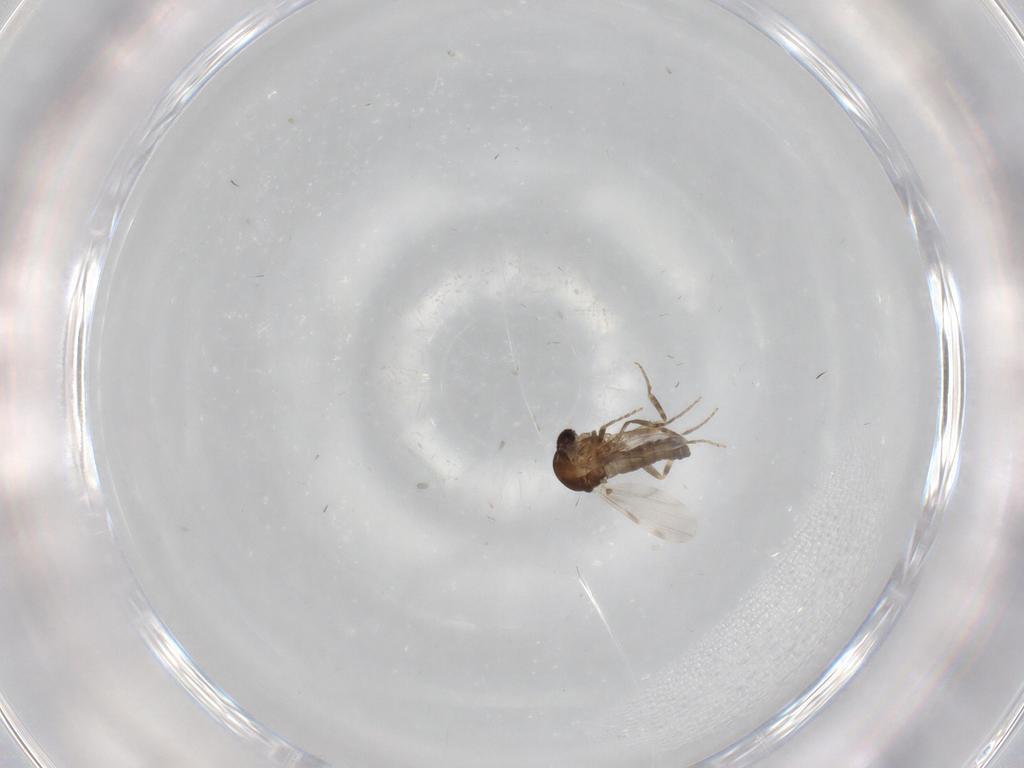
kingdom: Animalia
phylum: Arthropoda
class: Insecta
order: Diptera
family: Ceratopogonidae
